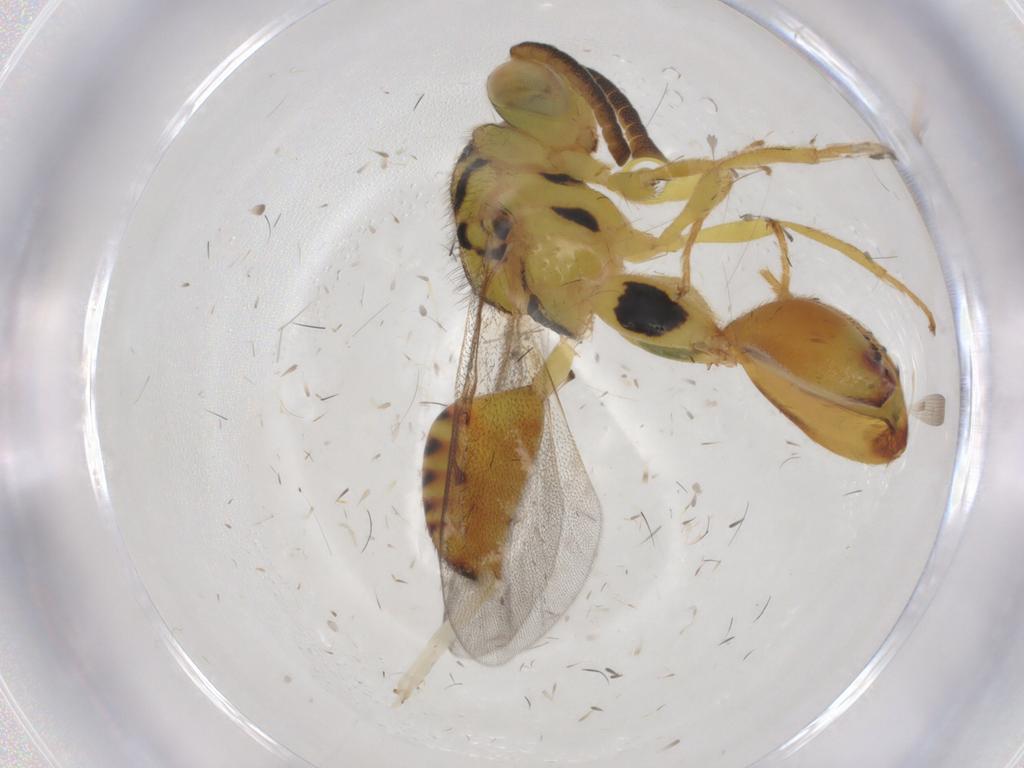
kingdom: Animalia
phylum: Arthropoda
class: Insecta
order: Hymenoptera
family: Chalcididae
